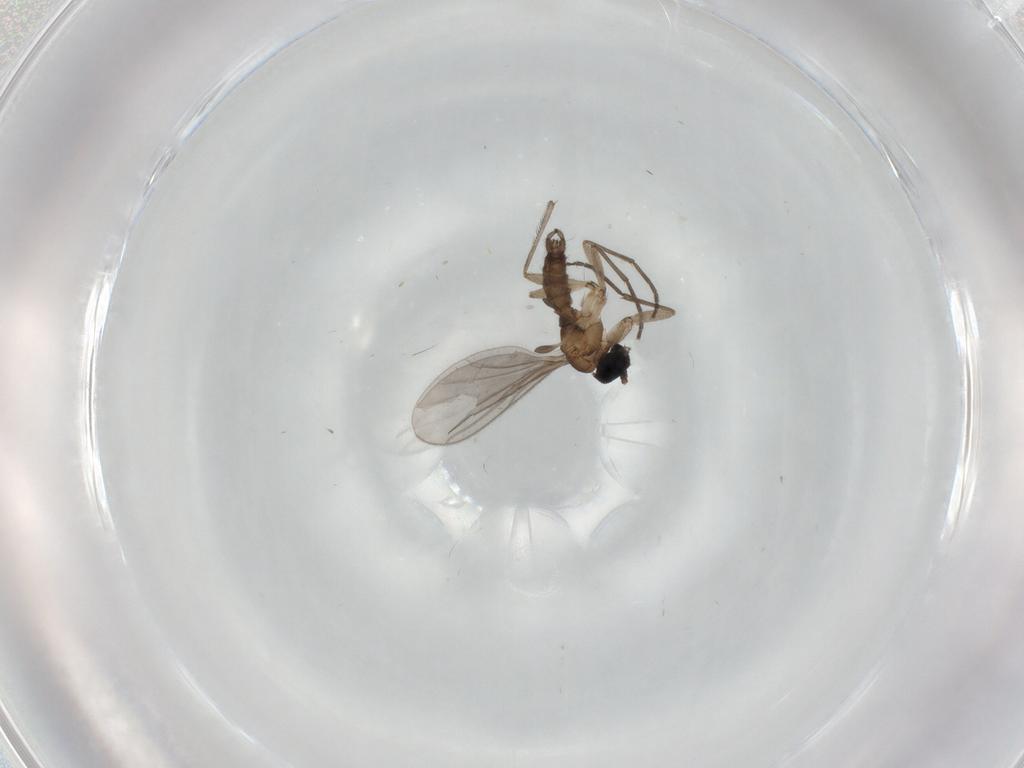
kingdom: Animalia
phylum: Arthropoda
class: Insecta
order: Diptera
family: Sciaridae
